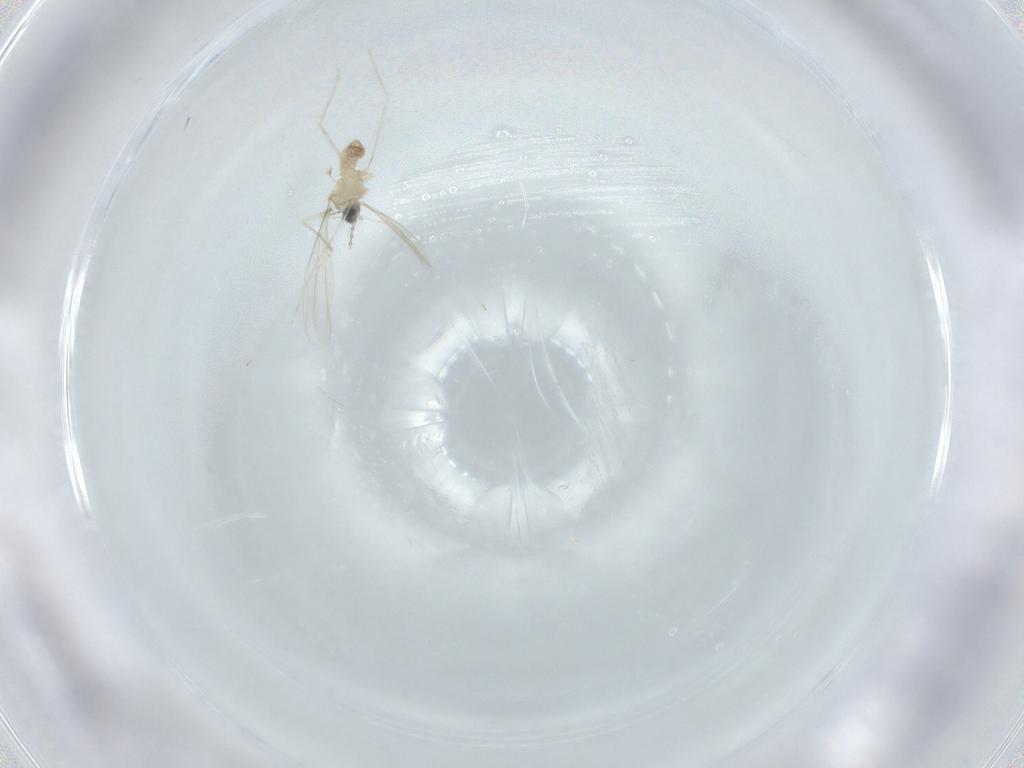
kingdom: Animalia
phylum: Arthropoda
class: Insecta
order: Diptera
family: Cecidomyiidae
